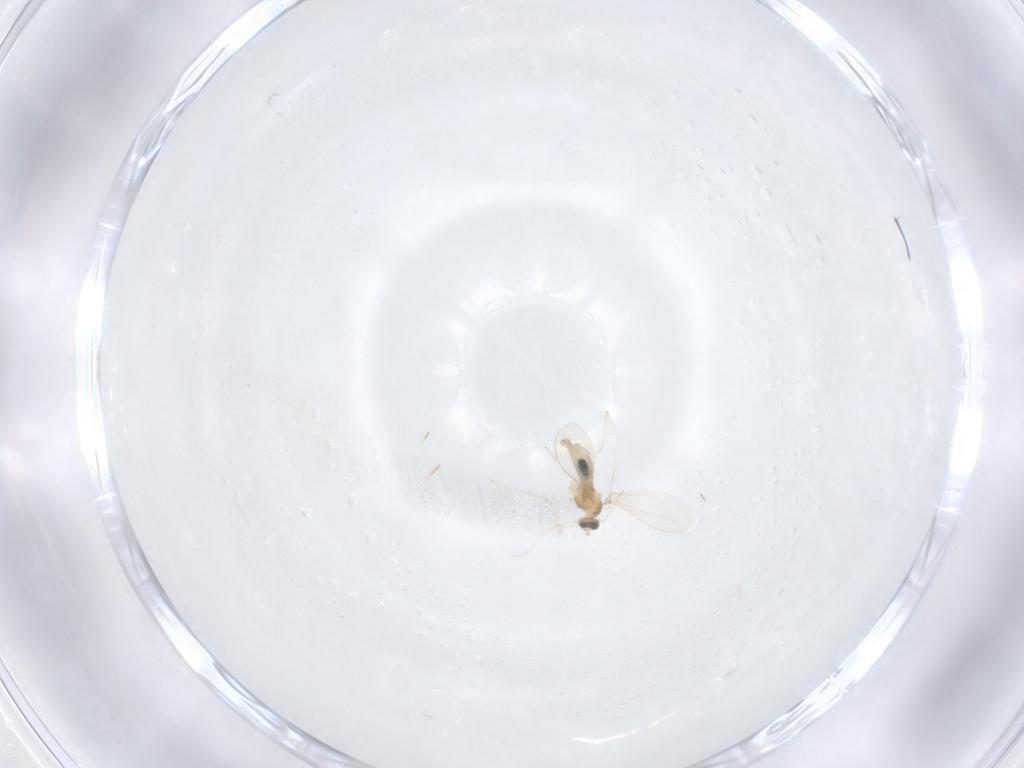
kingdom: Animalia
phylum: Arthropoda
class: Insecta
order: Diptera
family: Cecidomyiidae
